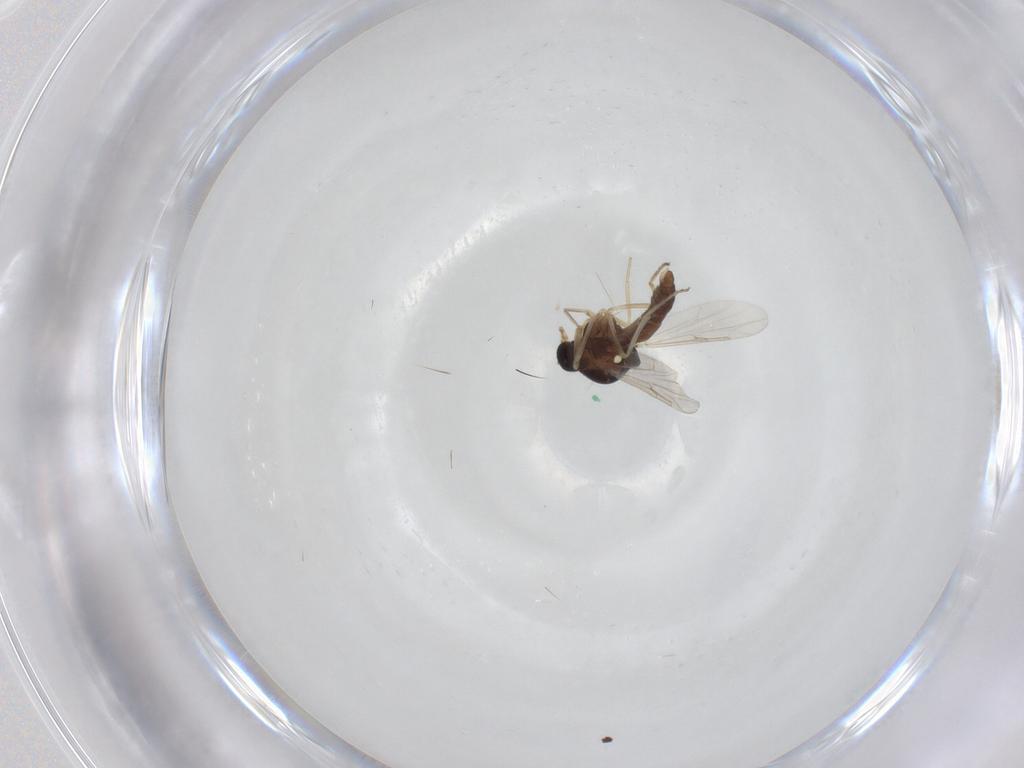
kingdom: Animalia
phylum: Arthropoda
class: Insecta
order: Diptera
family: Ceratopogonidae
